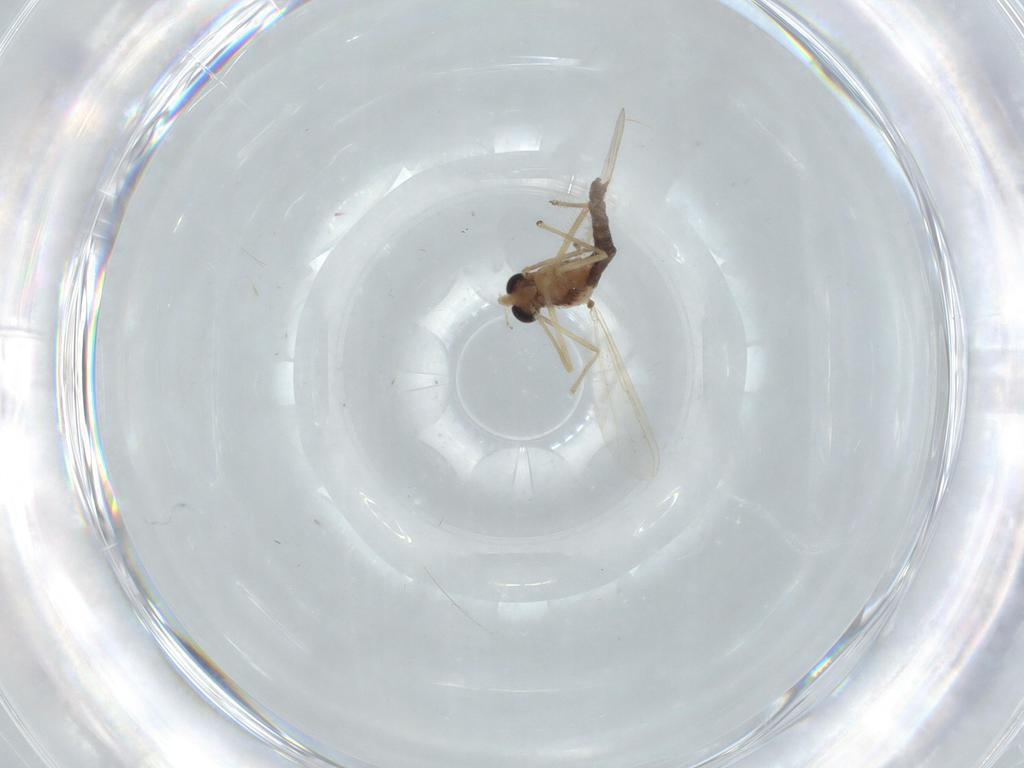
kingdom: Animalia
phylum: Arthropoda
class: Insecta
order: Diptera
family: Chironomidae
